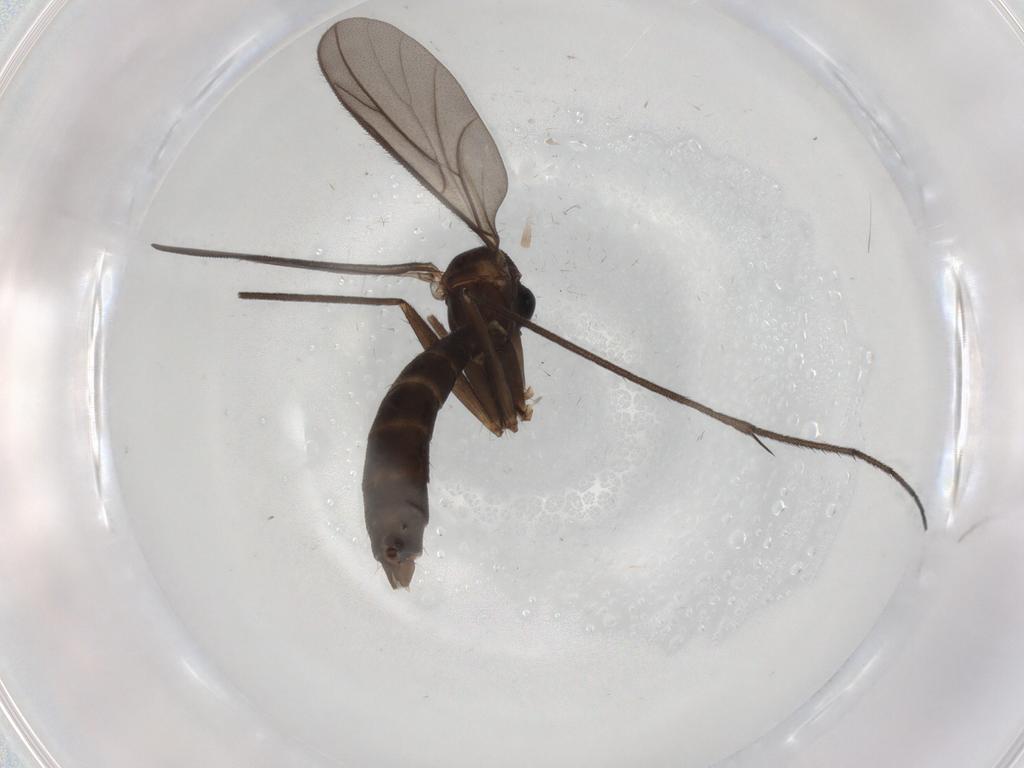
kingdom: Animalia
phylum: Arthropoda
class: Insecta
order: Diptera
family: Keroplatidae
